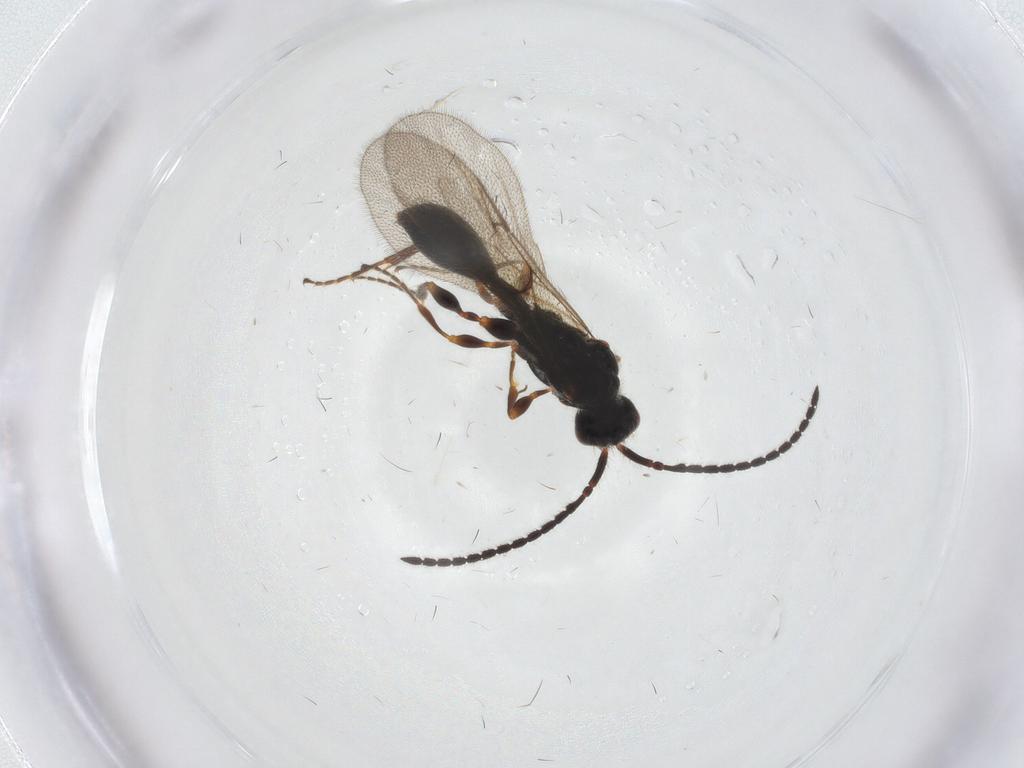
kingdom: Animalia
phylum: Arthropoda
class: Insecta
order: Hymenoptera
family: Diapriidae
